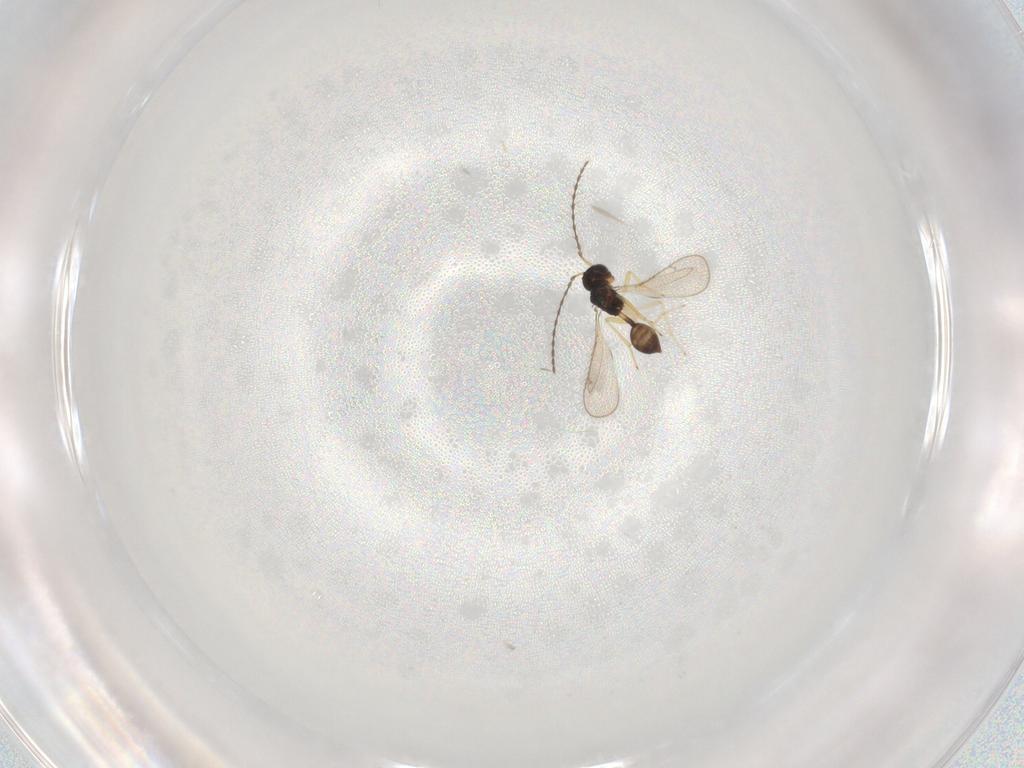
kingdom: Animalia
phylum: Arthropoda
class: Insecta
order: Hymenoptera
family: Diparidae
